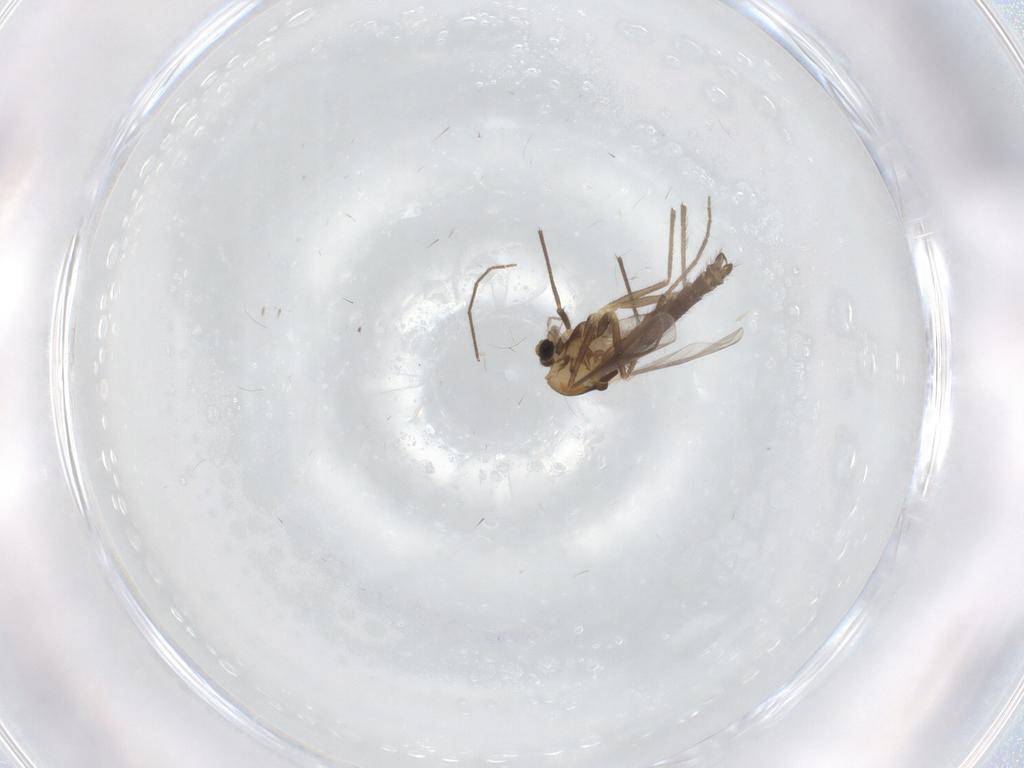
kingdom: Animalia
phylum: Arthropoda
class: Insecta
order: Diptera
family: Chironomidae
